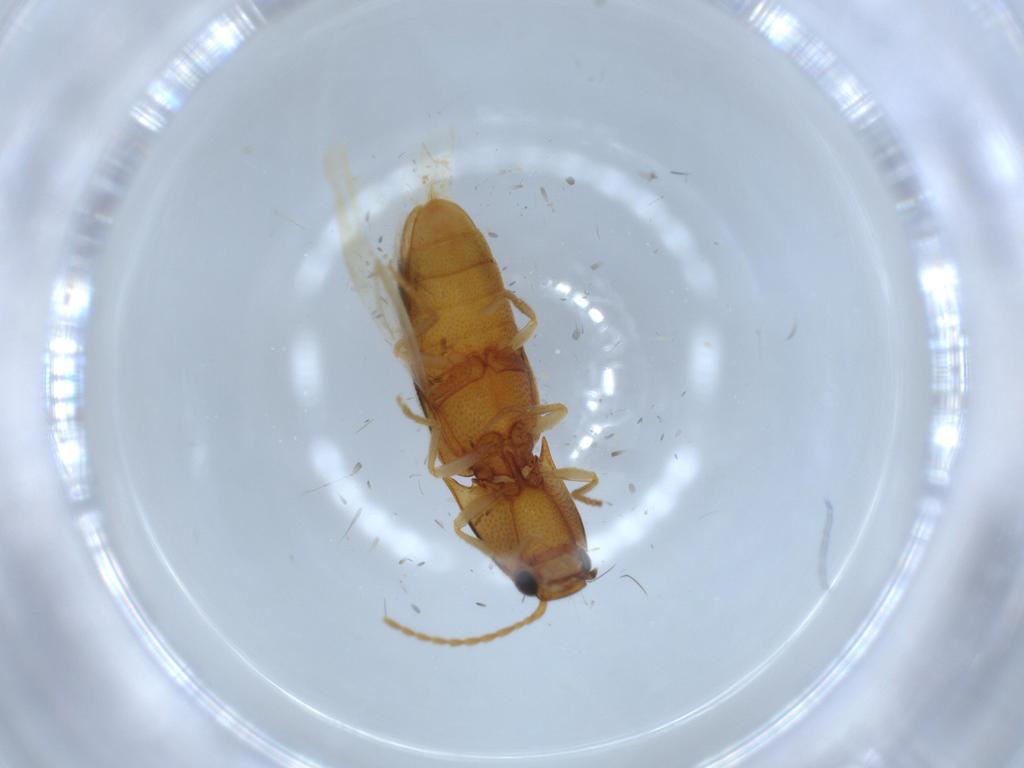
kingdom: Animalia
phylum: Arthropoda
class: Insecta
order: Coleoptera
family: Elateridae
